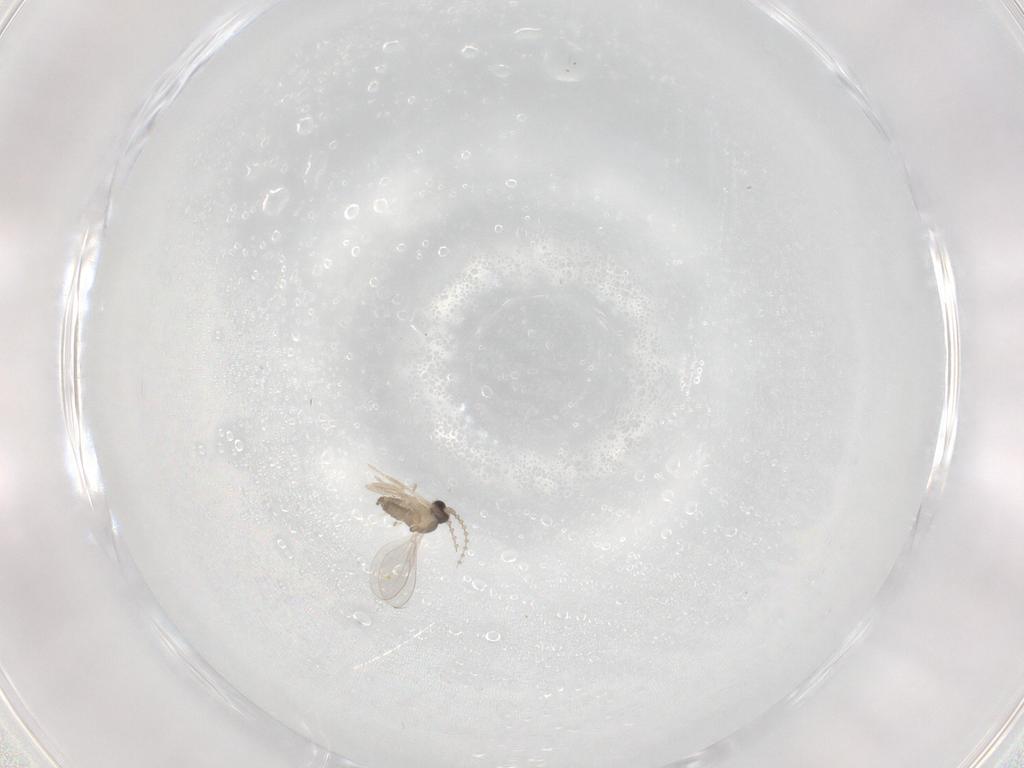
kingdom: Animalia
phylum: Arthropoda
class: Insecta
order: Diptera
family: Cecidomyiidae
